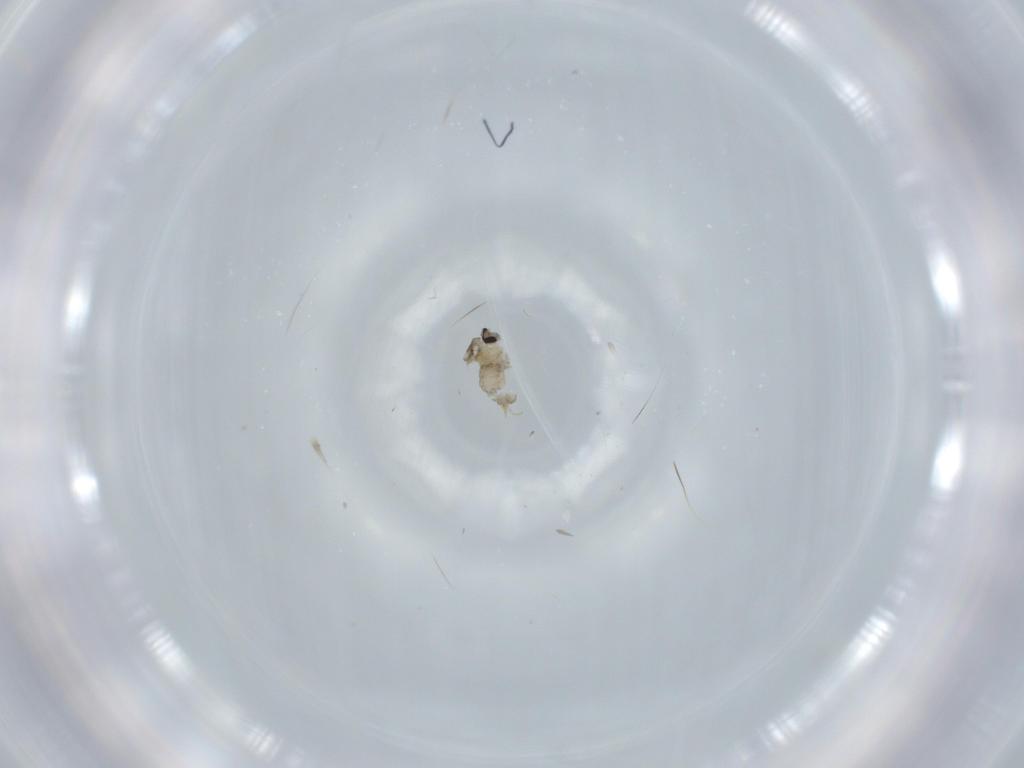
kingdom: Animalia
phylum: Arthropoda
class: Insecta
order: Diptera
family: Cecidomyiidae
